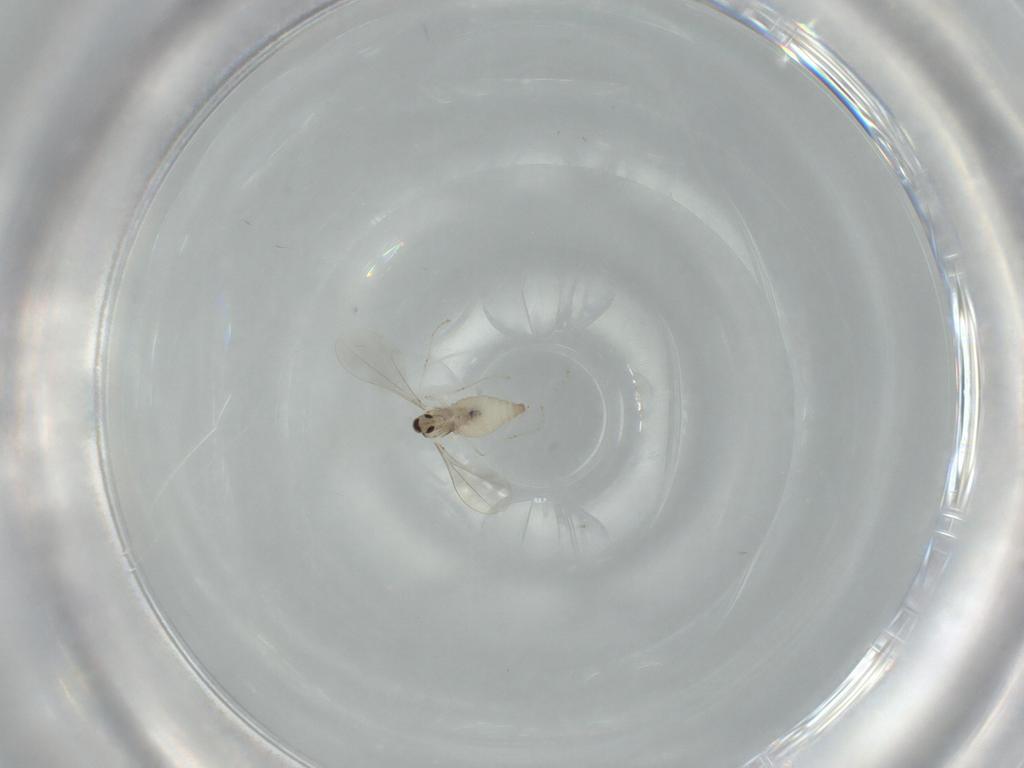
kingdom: Animalia
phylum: Arthropoda
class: Insecta
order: Diptera
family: Cecidomyiidae
